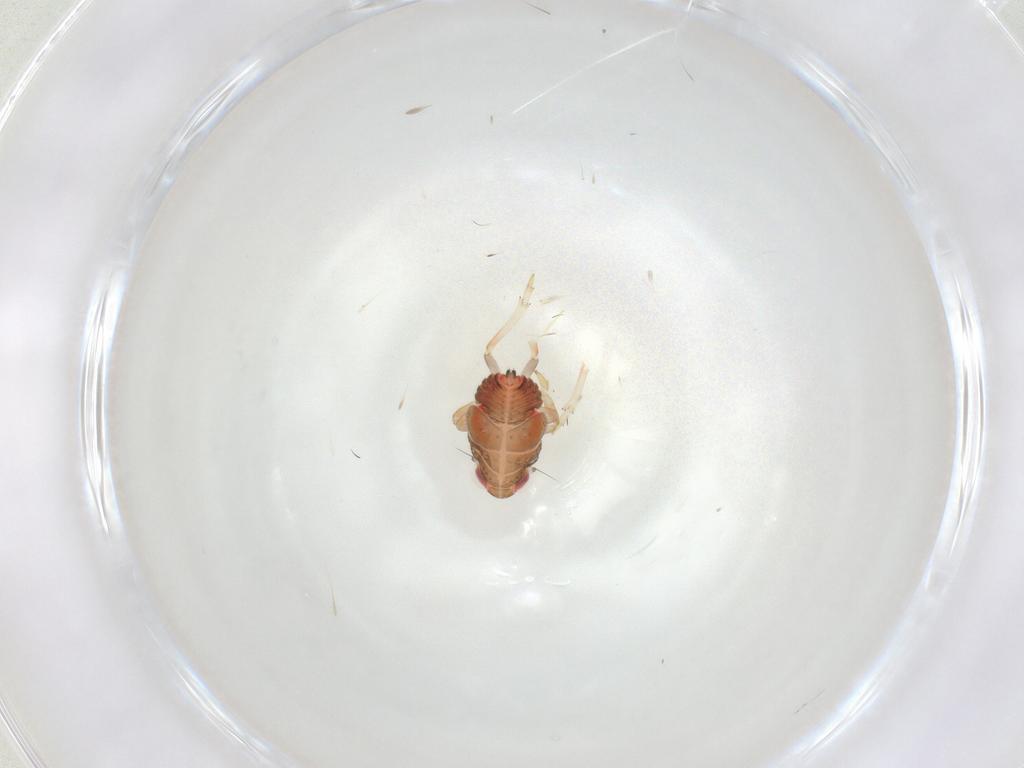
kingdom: Animalia
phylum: Arthropoda
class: Insecta
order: Hemiptera
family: Issidae
